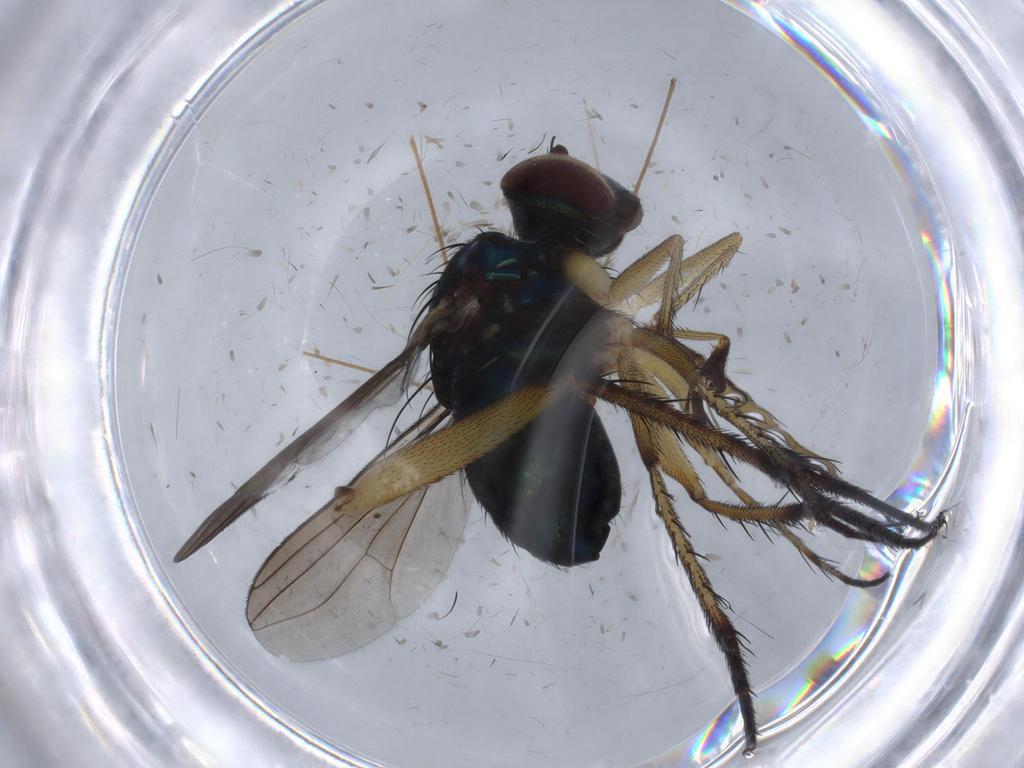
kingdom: Animalia
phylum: Arthropoda
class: Insecta
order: Diptera
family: Dolichopodidae
